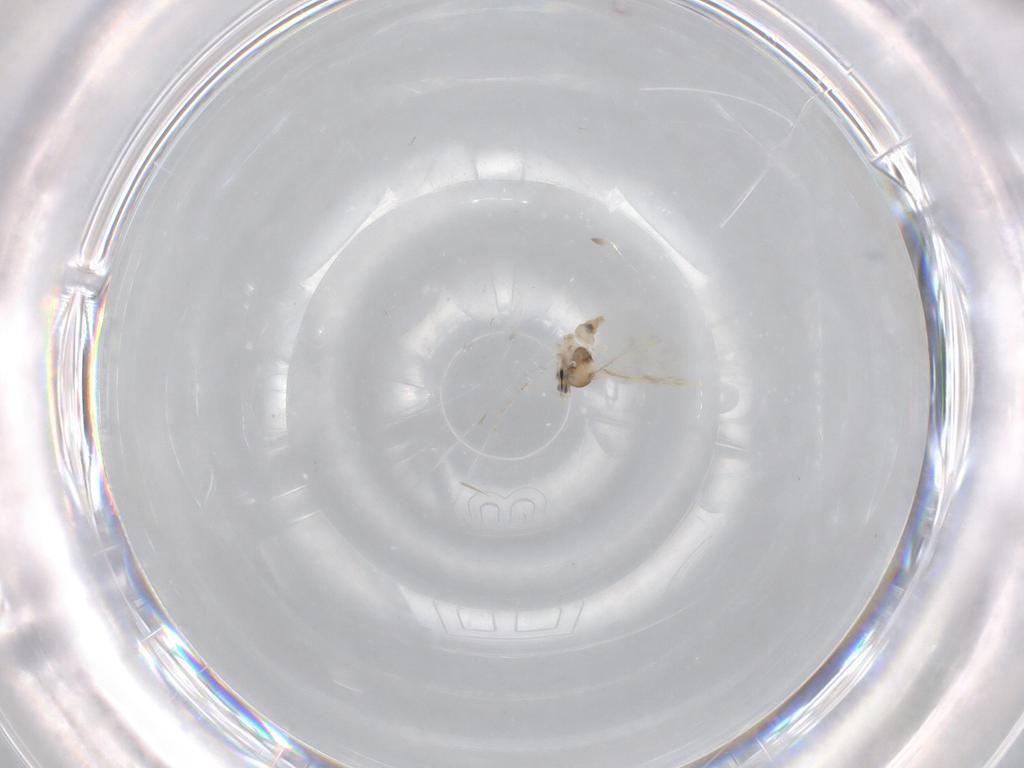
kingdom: Animalia
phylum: Arthropoda
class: Insecta
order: Diptera
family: Cecidomyiidae
